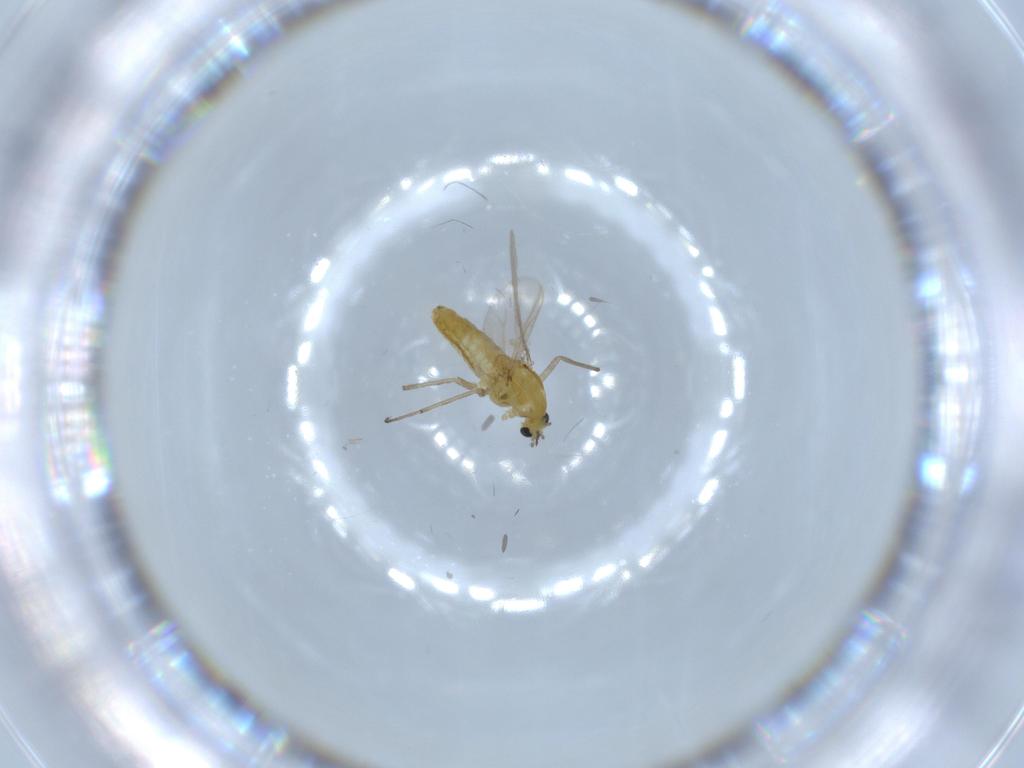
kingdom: Animalia
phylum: Arthropoda
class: Insecta
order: Diptera
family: Chironomidae
